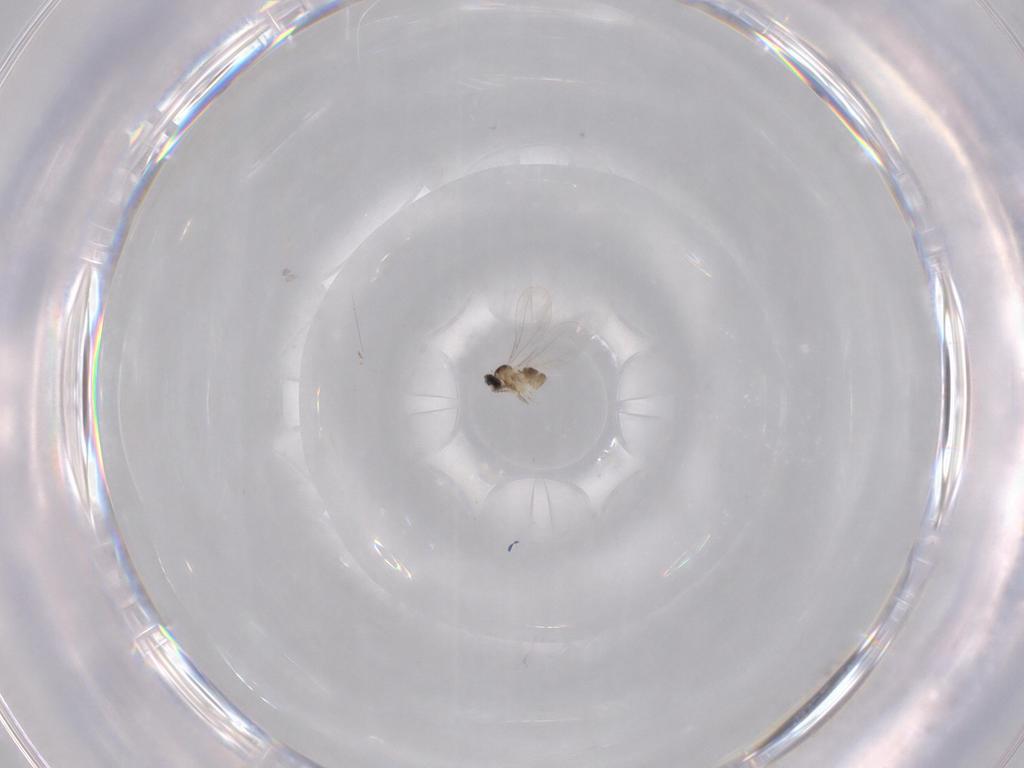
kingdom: Animalia
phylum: Arthropoda
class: Insecta
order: Diptera
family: Cecidomyiidae
